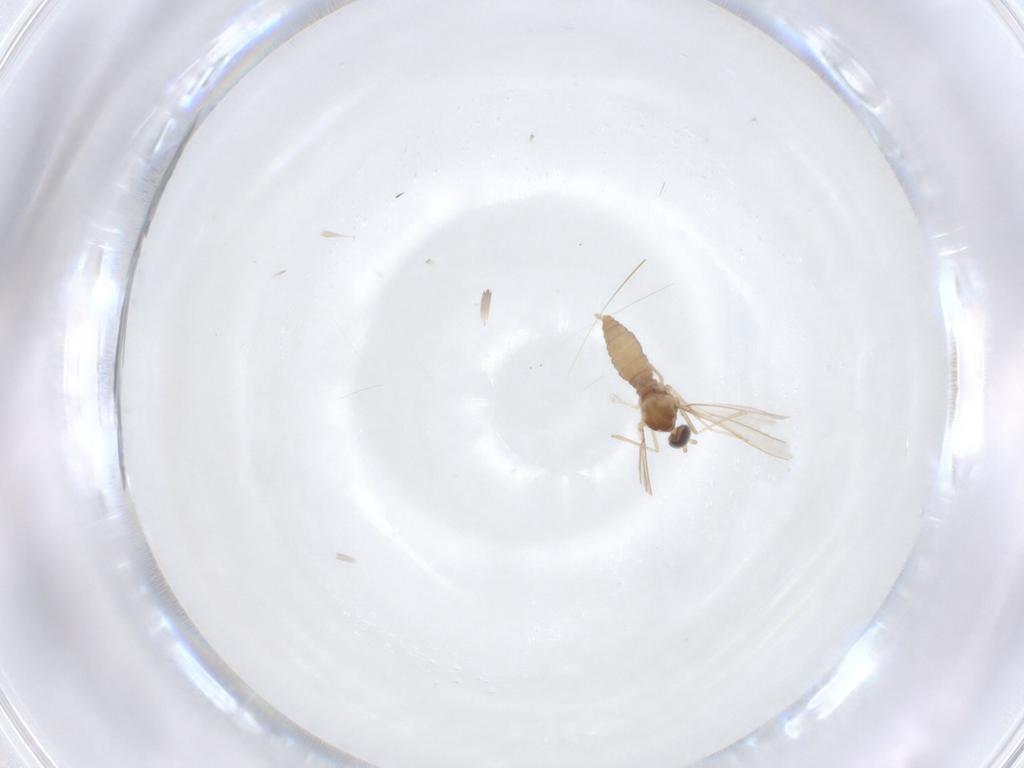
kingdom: Animalia
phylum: Arthropoda
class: Insecta
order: Diptera
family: Cecidomyiidae
